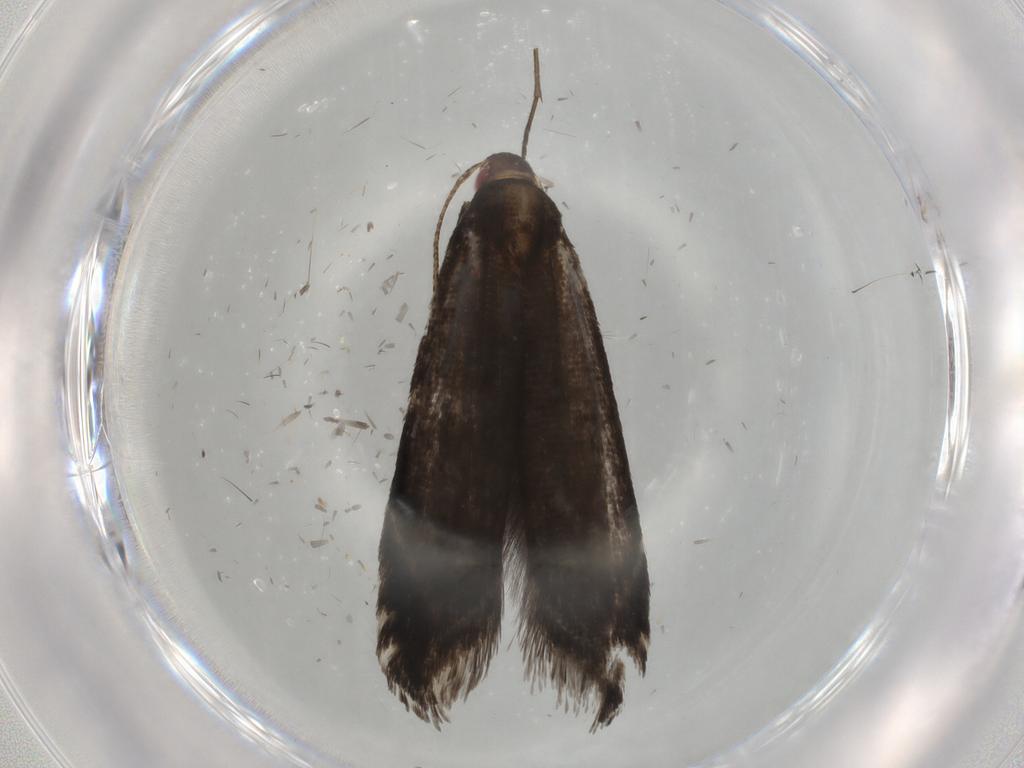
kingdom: Animalia
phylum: Arthropoda
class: Insecta
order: Lepidoptera
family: Gelechiidae
